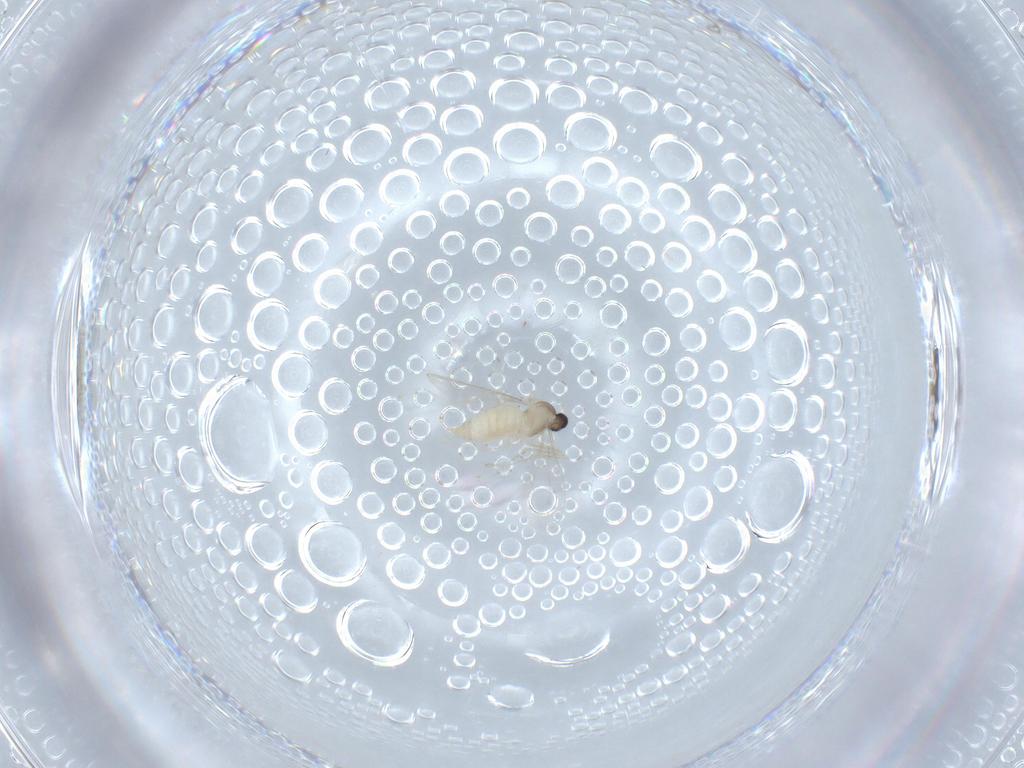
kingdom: Animalia
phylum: Arthropoda
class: Insecta
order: Diptera
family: Cecidomyiidae
